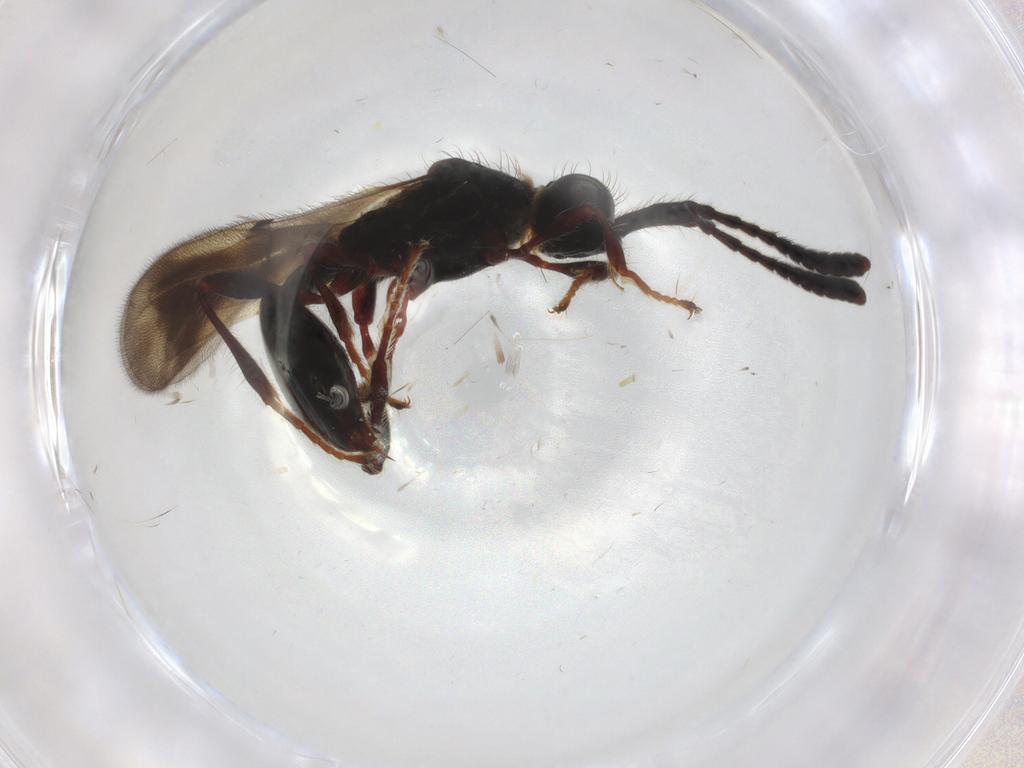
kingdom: Animalia
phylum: Arthropoda
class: Insecta
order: Hymenoptera
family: Diapriidae
